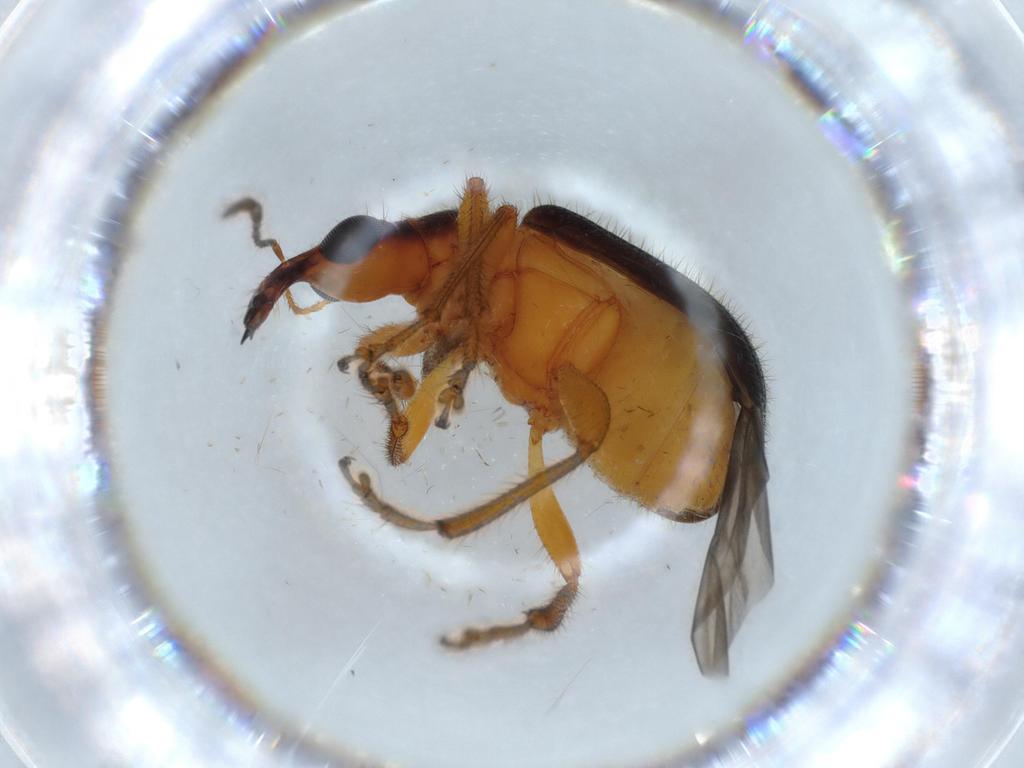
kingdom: Animalia
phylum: Arthropoda
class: Insecta
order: Coleoptera
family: Attelabidae
